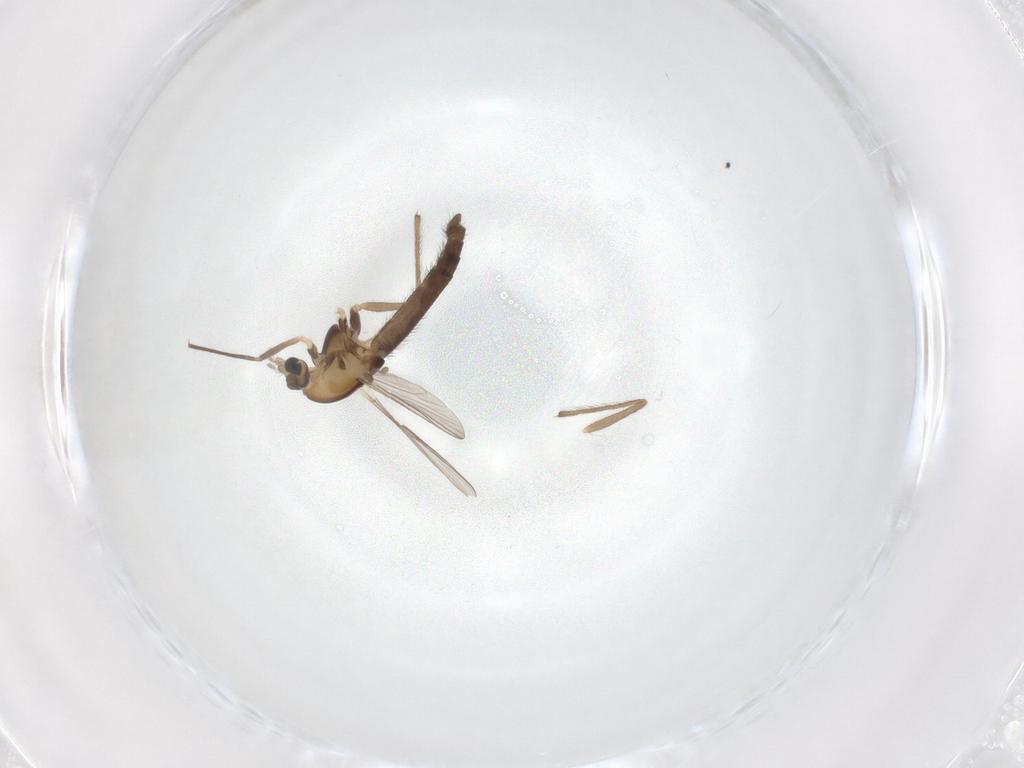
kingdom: Animalia
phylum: Arthropoda
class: Insecta
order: Diptera
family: Chironomidae
